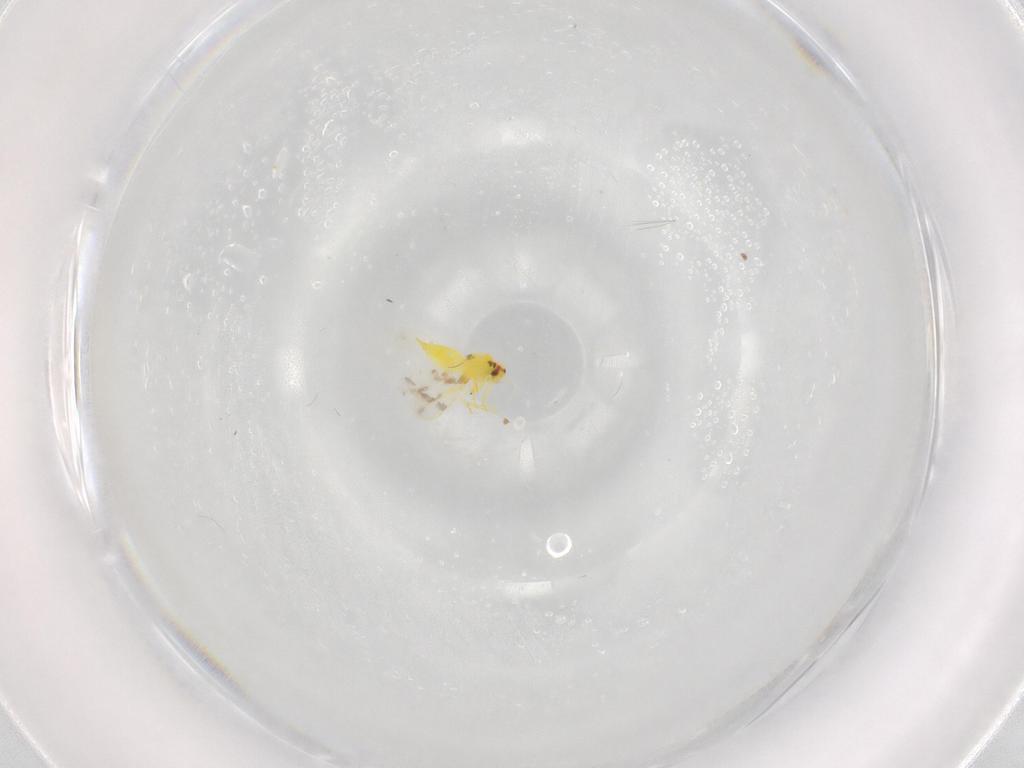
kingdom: Animalia
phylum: Arthropoda
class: Insecta
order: Hemiptera
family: Aleyrodidae
